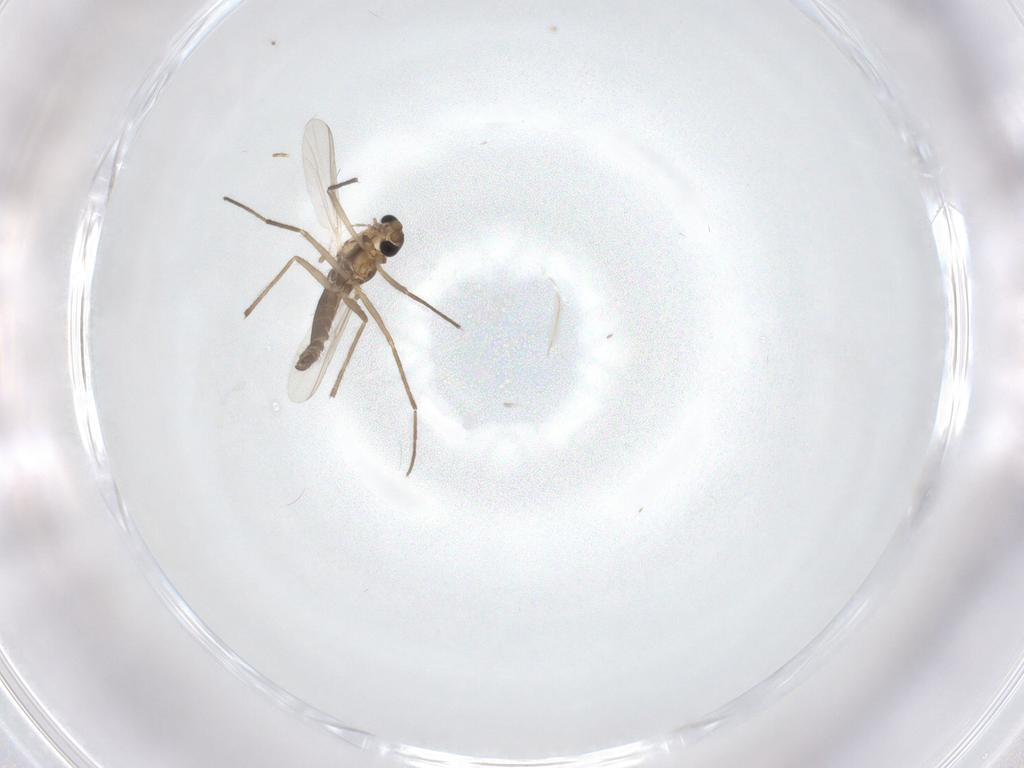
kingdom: Animalia
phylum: Arthropoda
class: Insecta
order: Diptera
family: Chironomidae
